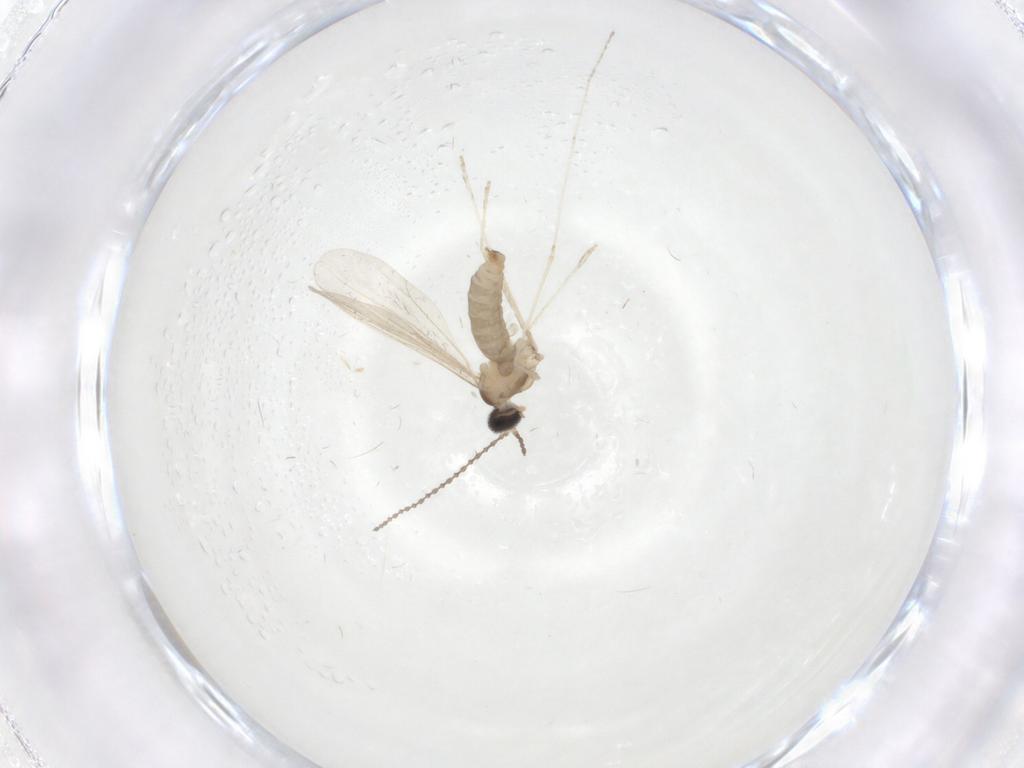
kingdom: Animalia
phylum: Arthropoda
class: Insecta
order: Diptera
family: Cecidomyiidae
